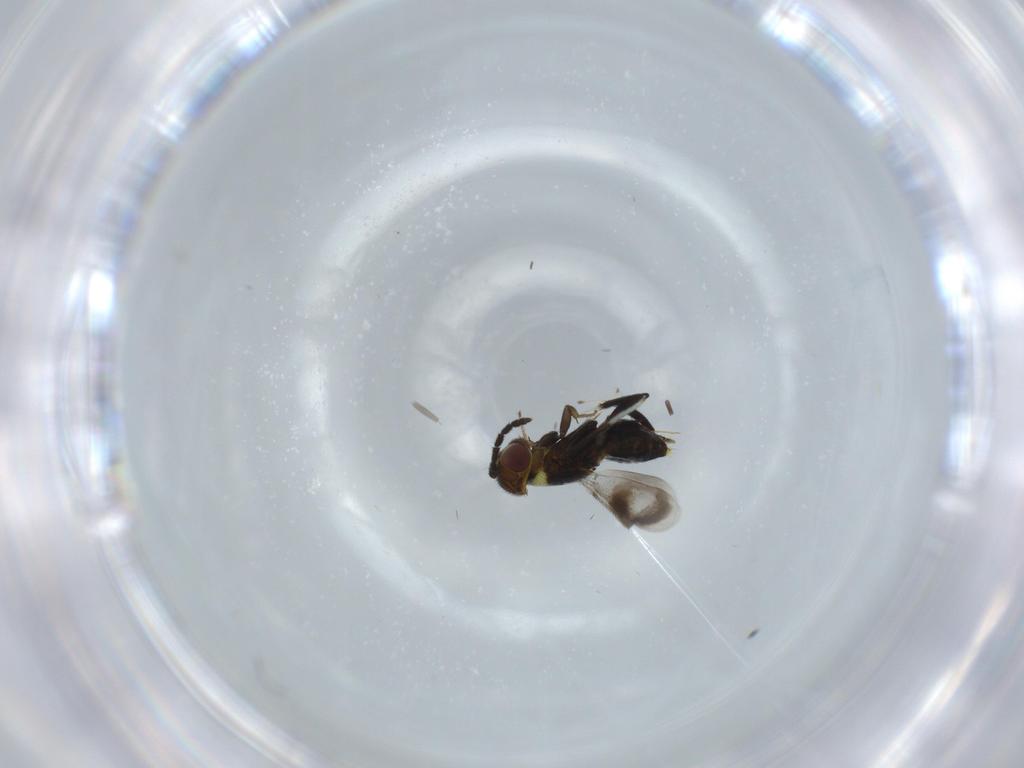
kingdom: Animalia
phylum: Arthropoda
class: Insecta
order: Hymenoptera
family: Aphelinidae
